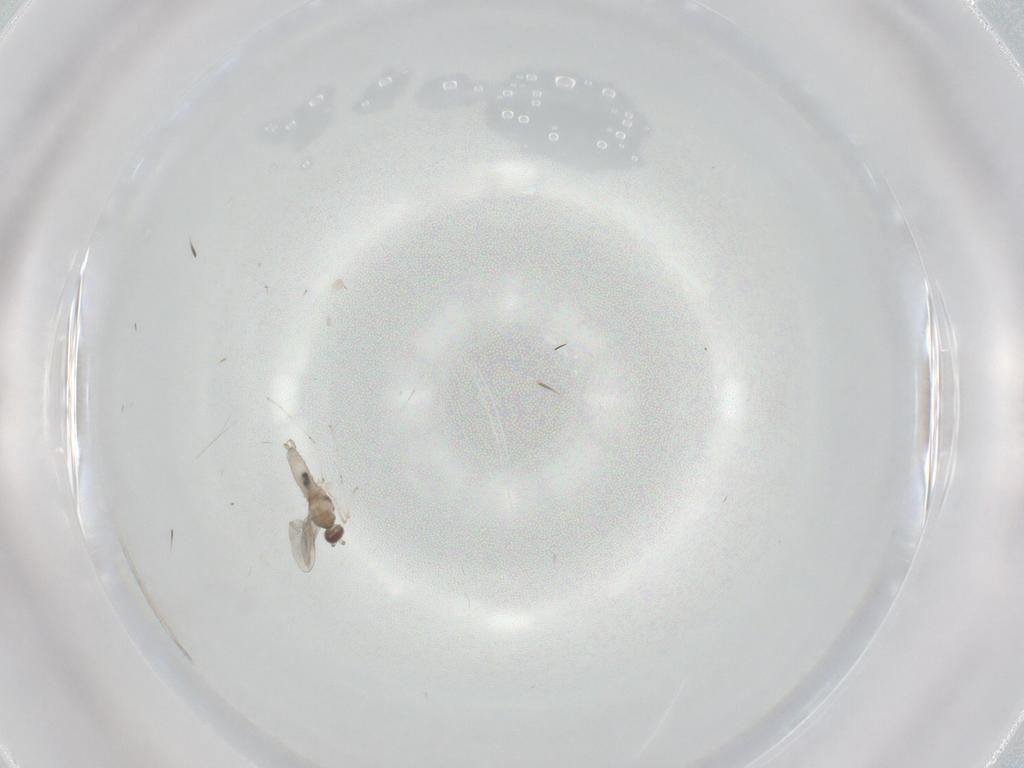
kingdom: Animalia
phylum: Arthropoda
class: Insecta
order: Diptera
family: Cecidomyiidae
